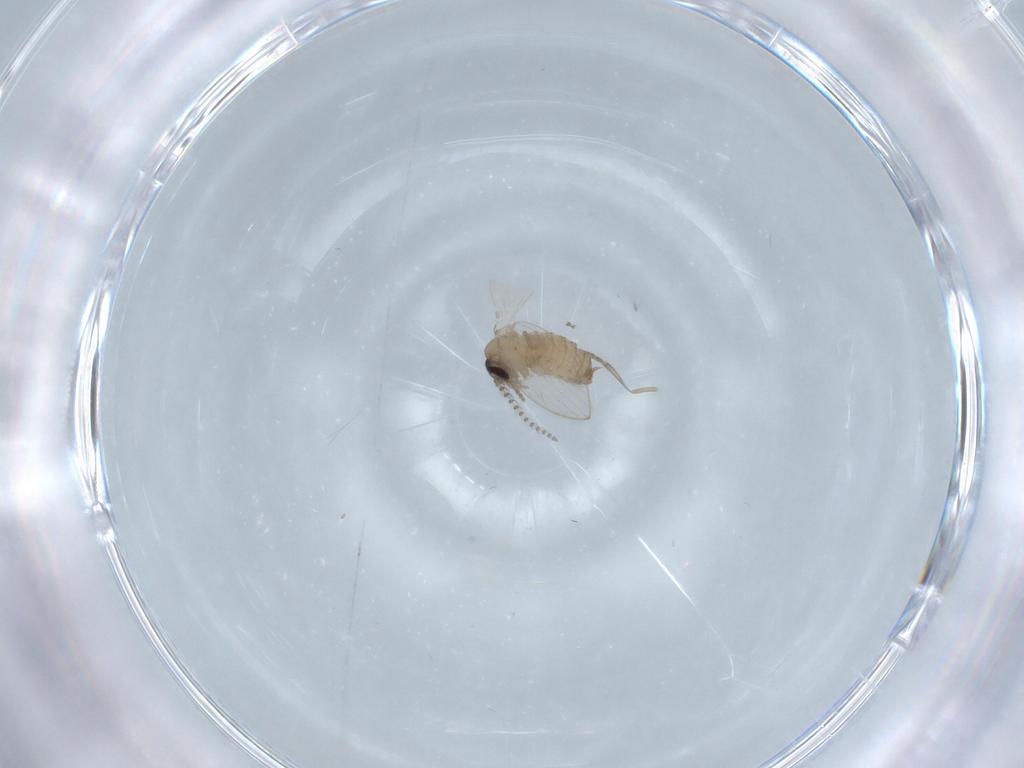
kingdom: Animalia
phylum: Arthropoda
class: Insecta
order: Diptera
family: Psychodidae
